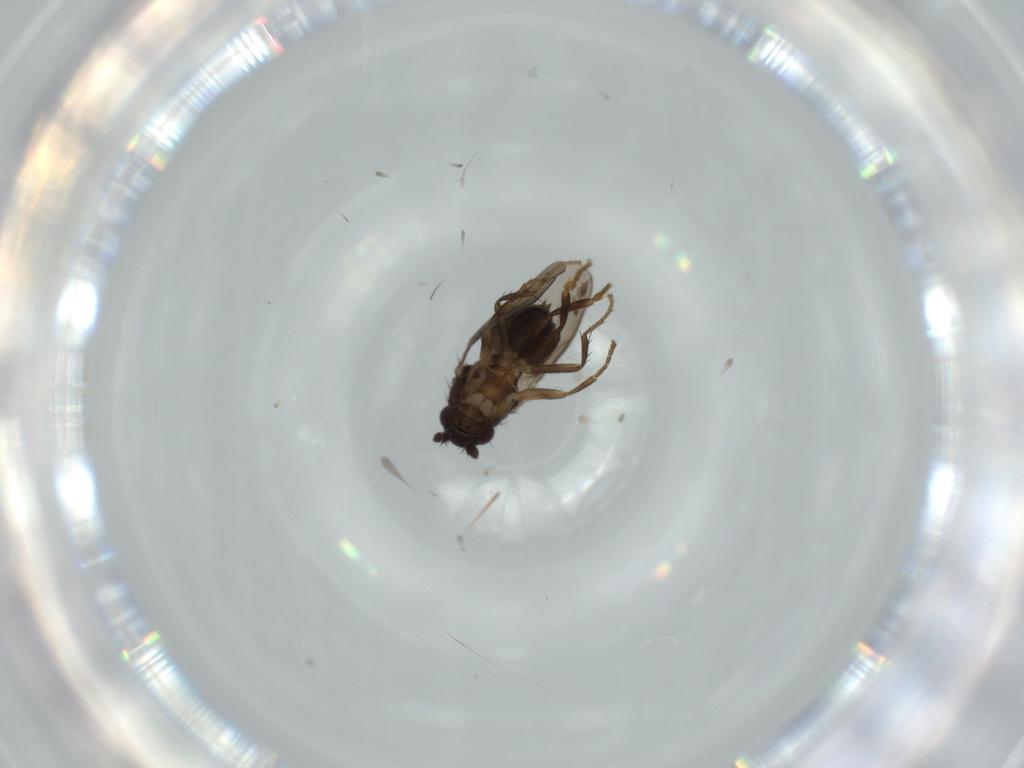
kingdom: Animalia
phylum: Arthropoda
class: Insecta
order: Diptera
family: Sphaeroceridae
